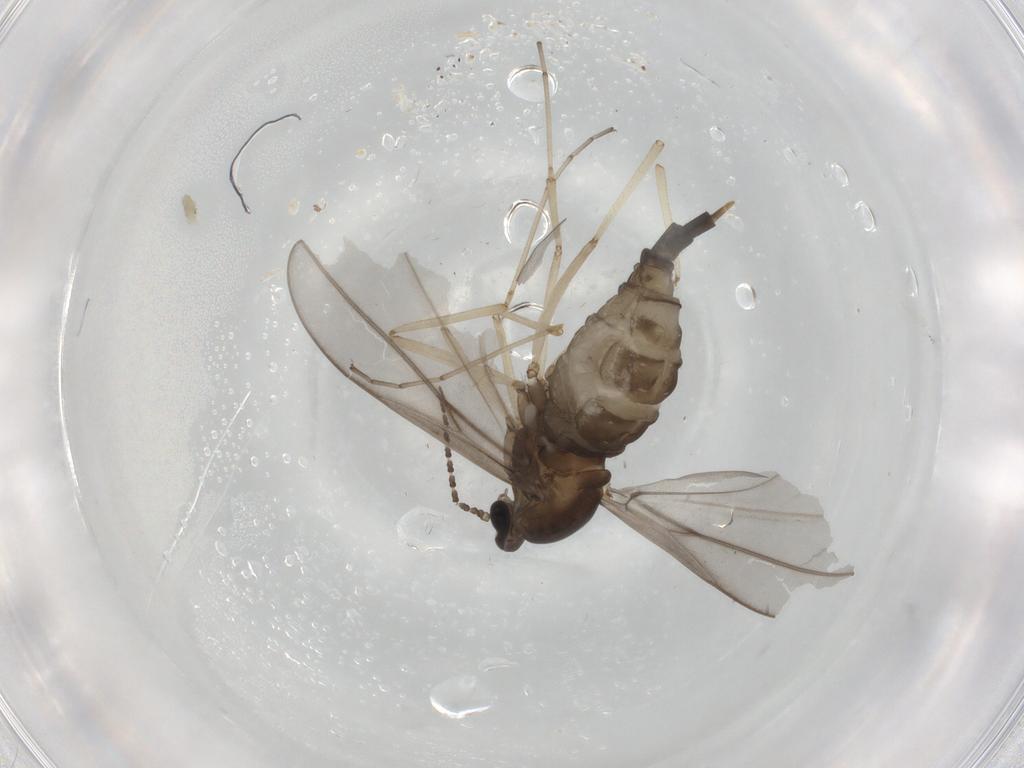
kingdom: Animalia
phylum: Arthropoda
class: Insecta
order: Diptera
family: Cecidomyiidae
